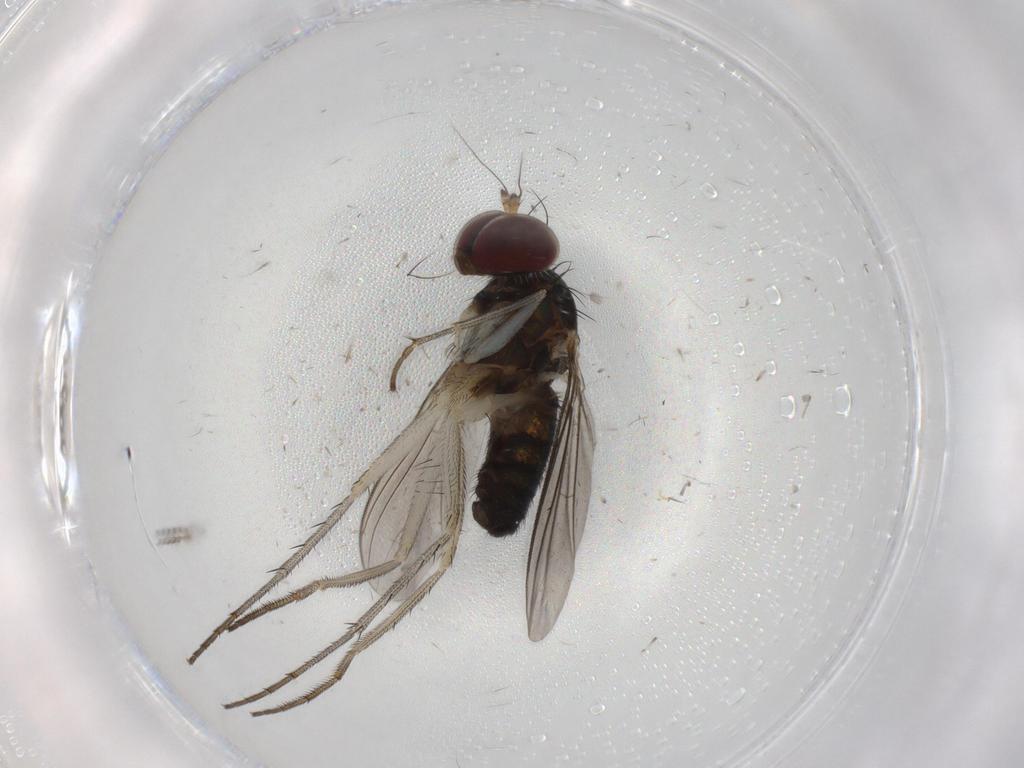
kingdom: Animalia
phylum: Arthropoda
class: Insecta
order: Diptera
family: Dolichopodidae
